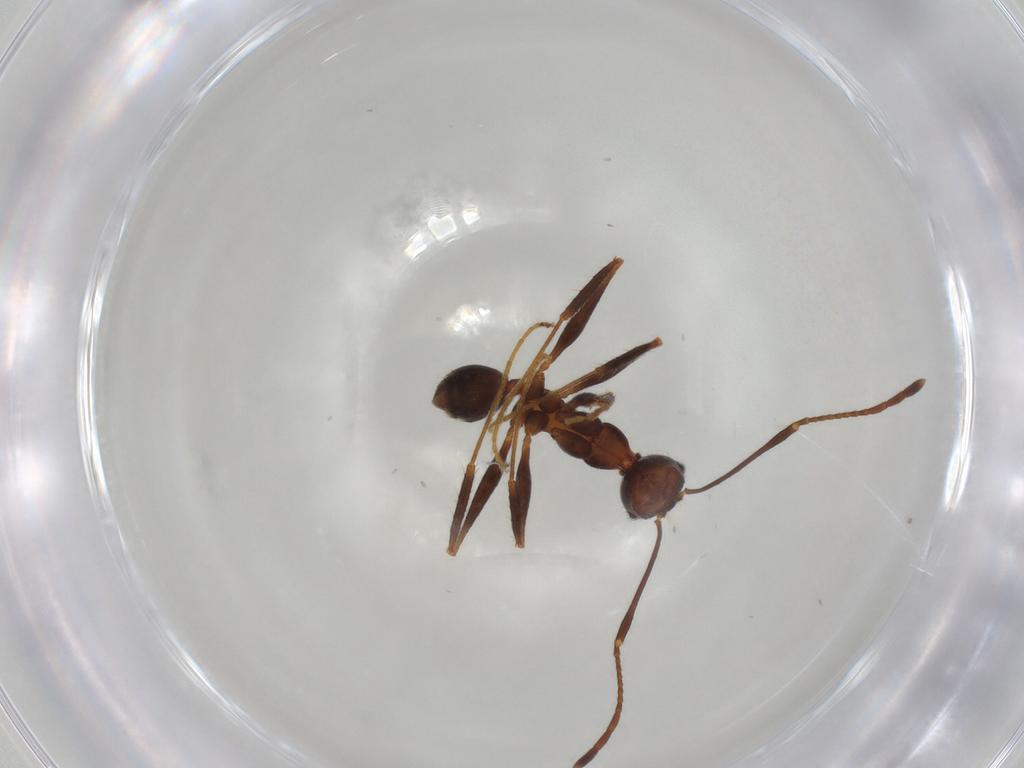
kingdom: Animalia
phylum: Arthropoda
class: Insecta
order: Hymenoptera
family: Formicidae
